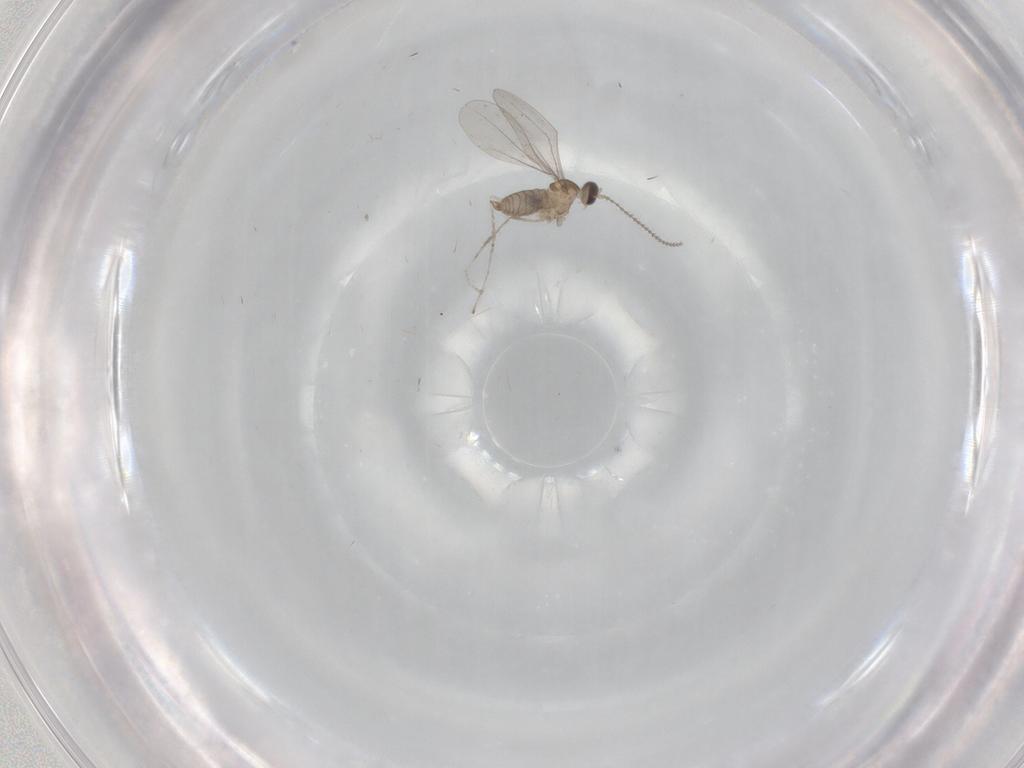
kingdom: Animalia
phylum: Arthropoda
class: Insecta
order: Diptera
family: Psychodidae
